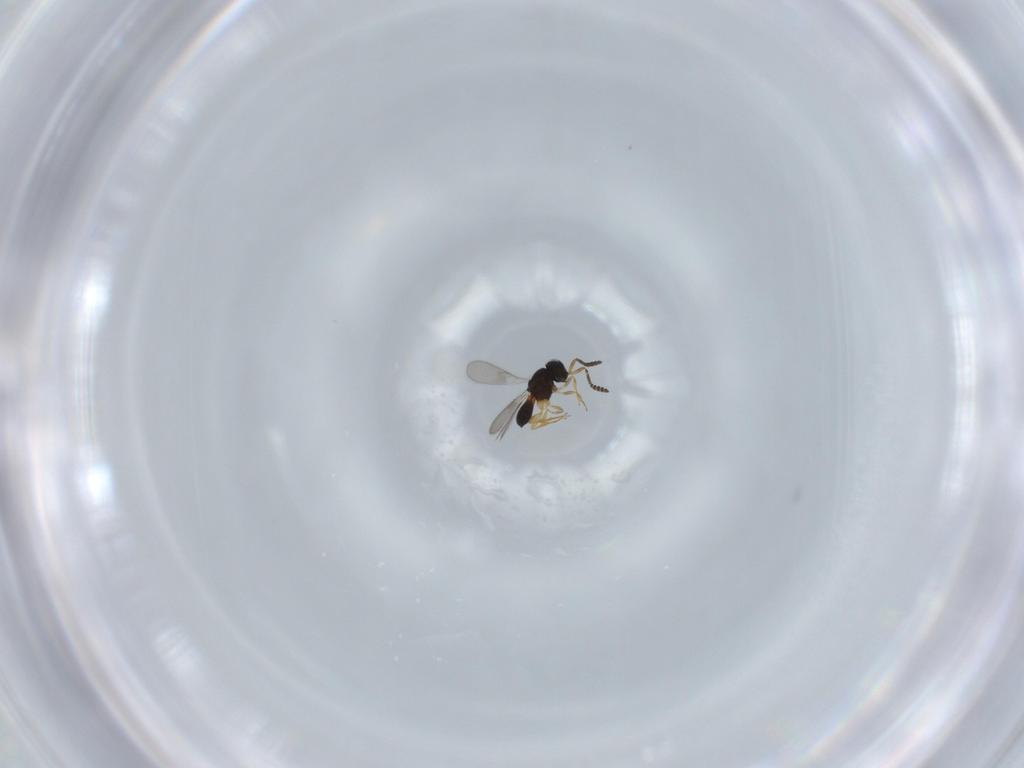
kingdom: Animalia
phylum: Arthropoda
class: Insecta
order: Hymenoptera
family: Scelionidae
